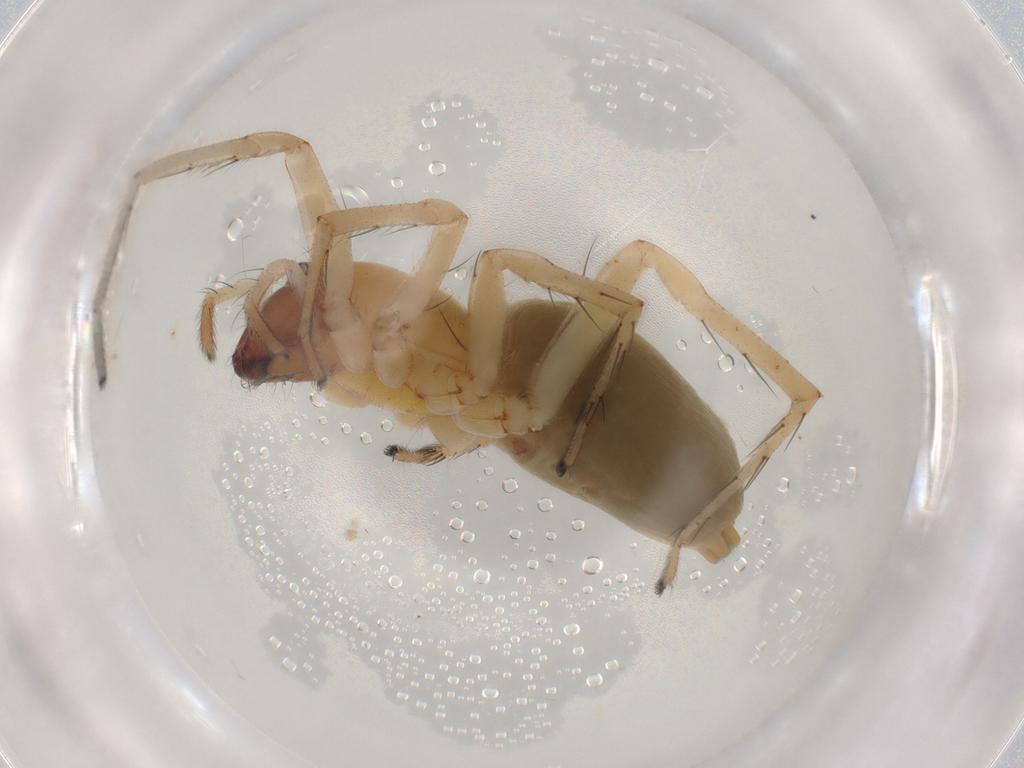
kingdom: Animalia
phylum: Arthropoda
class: Arachnida
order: Araneae
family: Anyphaenidae
